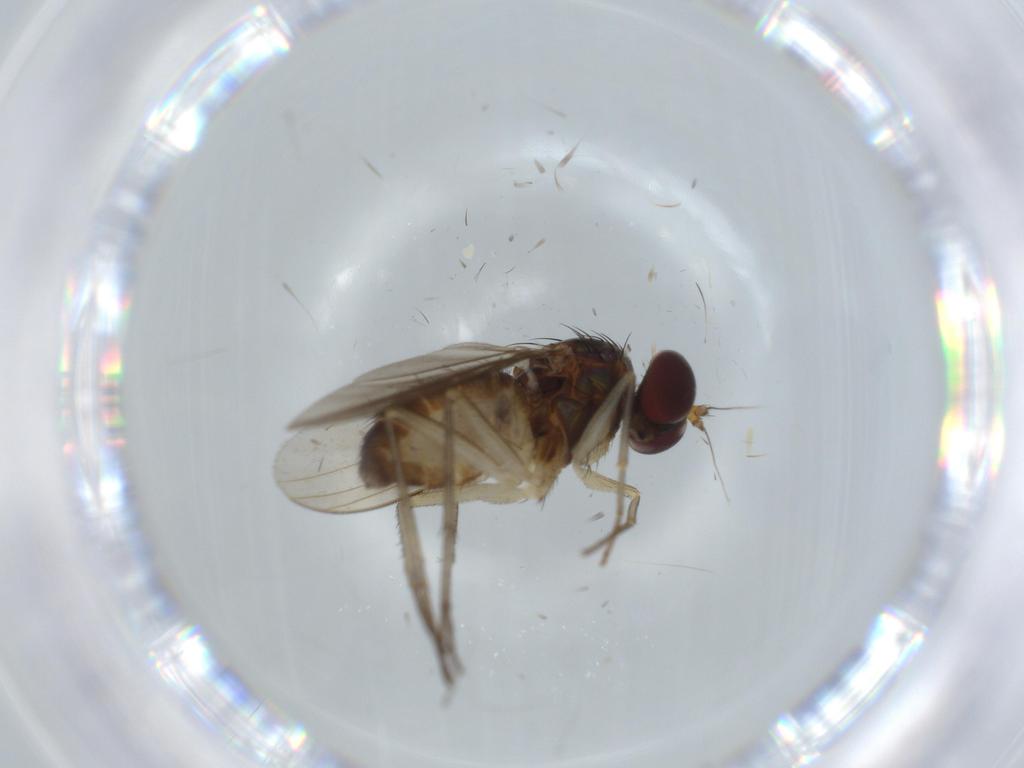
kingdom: Animalia
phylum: Arthropoda
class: Insecta
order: Diptera
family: Dolichopodidae
